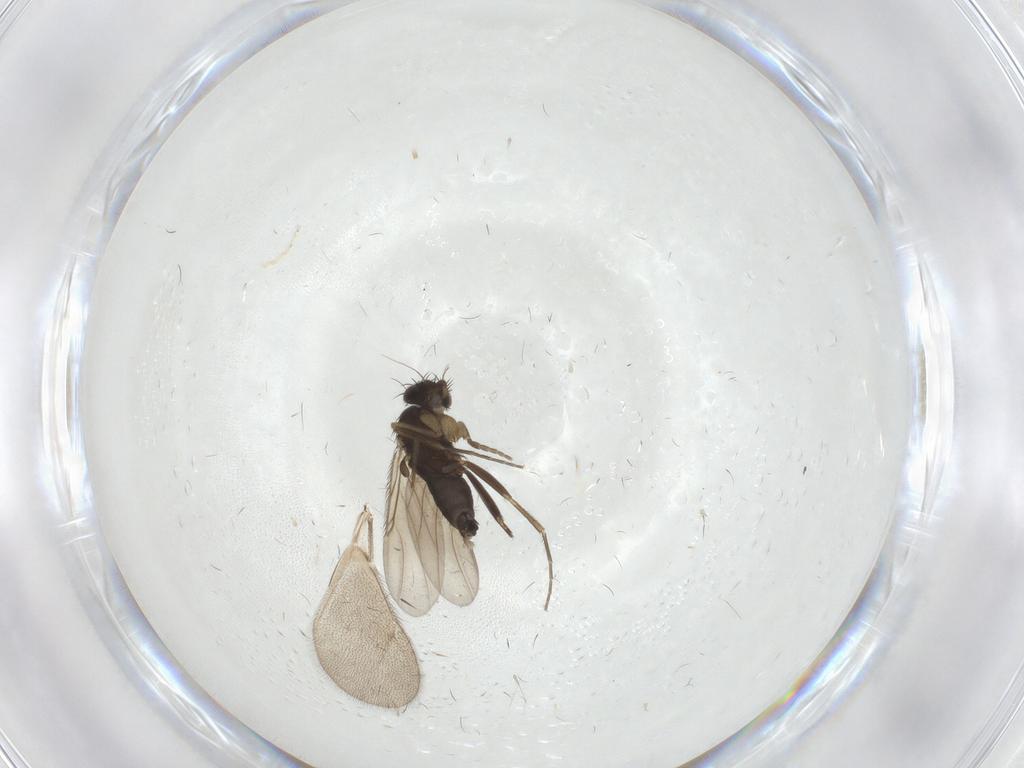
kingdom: Animalia
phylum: Arthropoda
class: Insecta
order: Diptera
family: Phoridae
